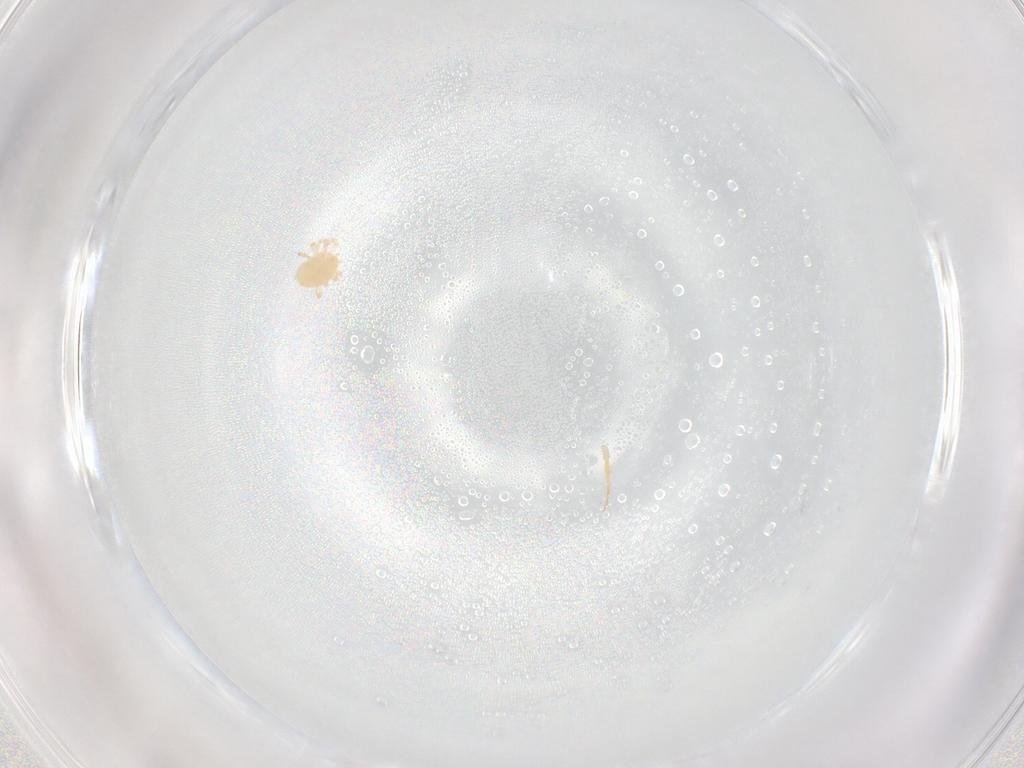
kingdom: Animalia
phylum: Arthropoda
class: Arachnida
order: Mesostigmata
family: Phytoseiidae
